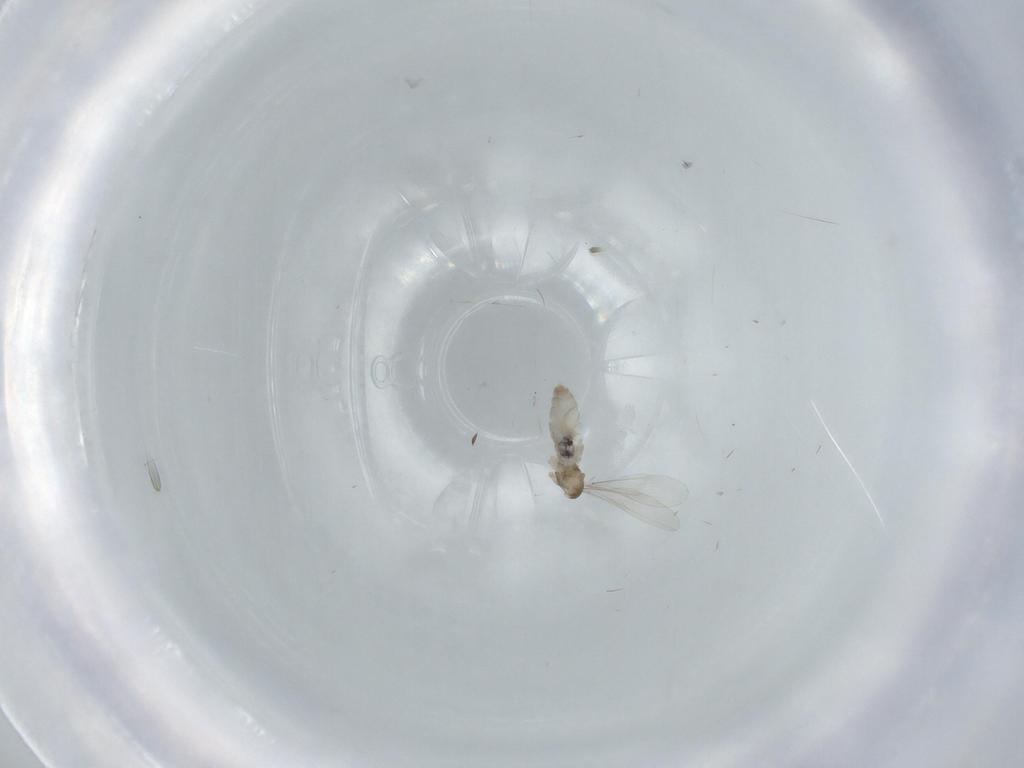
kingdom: Animalia
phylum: Arthropoda
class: Insecta
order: Diptera
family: Cecidomyiidae
